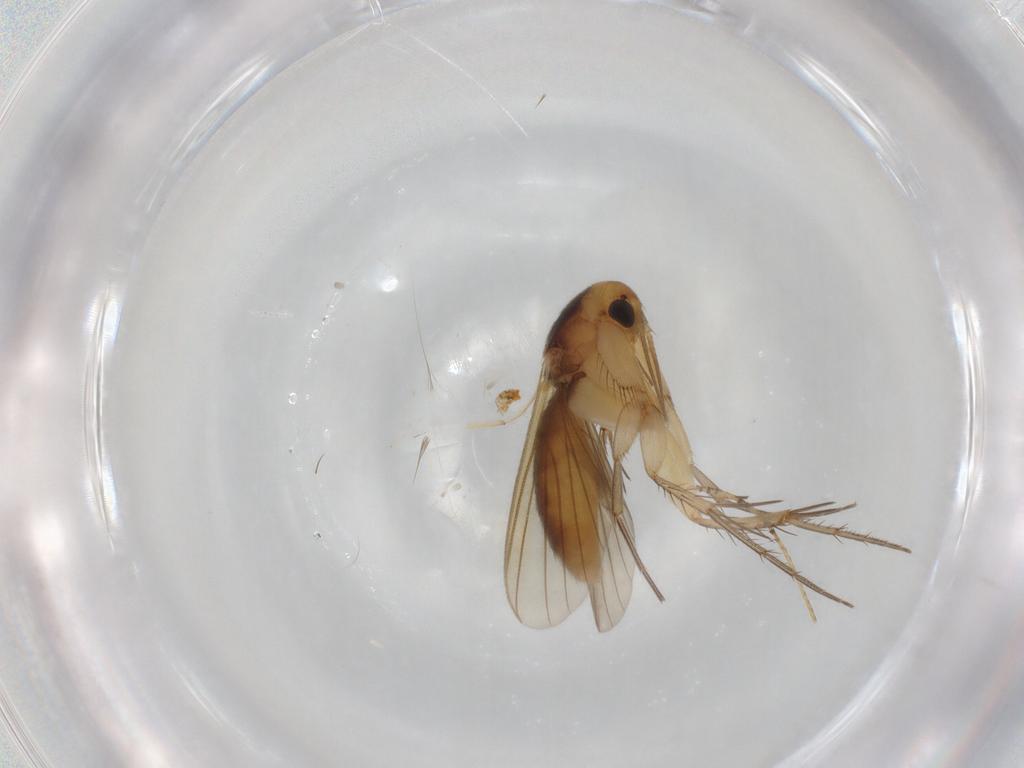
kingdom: Animalia
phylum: Arthropoda
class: Insecta
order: Diptera
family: Mycetophilidae
